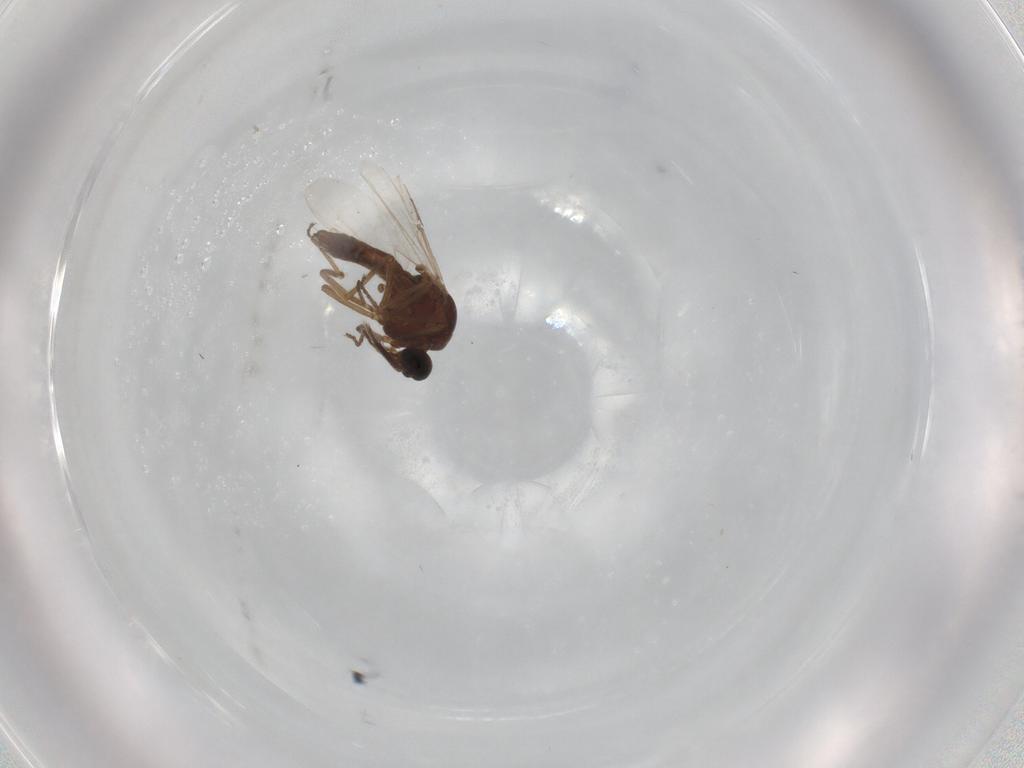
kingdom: Animalia
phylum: Arthropoda
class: Insecta
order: Diptera
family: Ceratopogonidae
